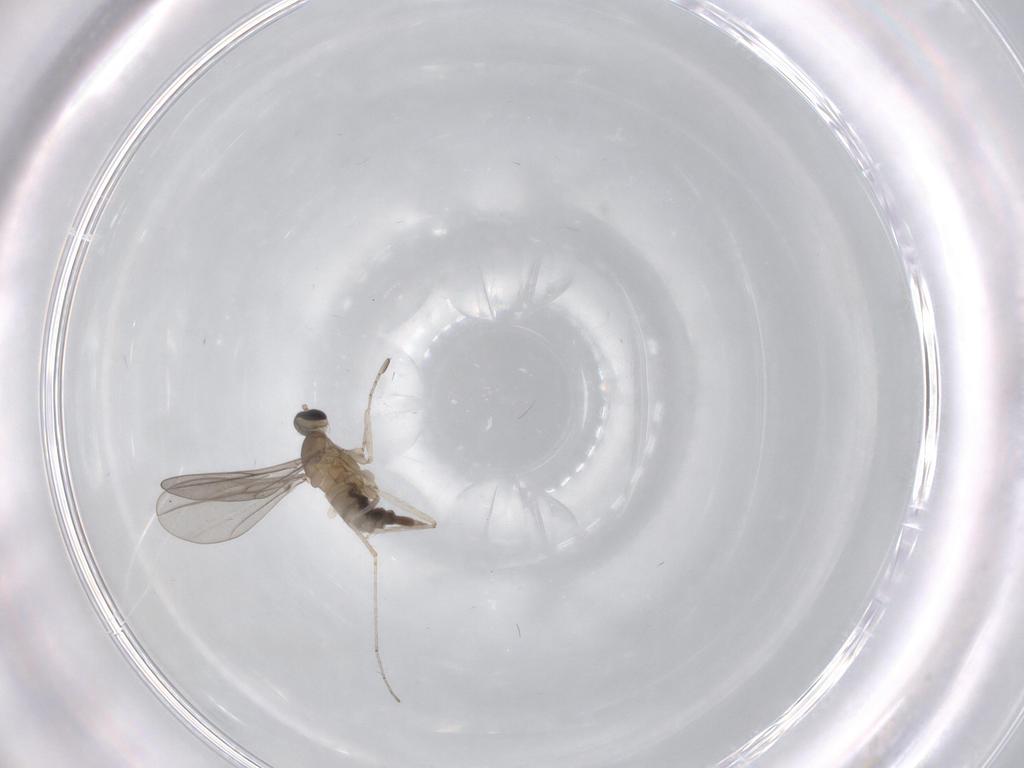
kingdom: Animalia
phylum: Arthropoda
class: Insecta
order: Diptera
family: Cecidomyiidae
